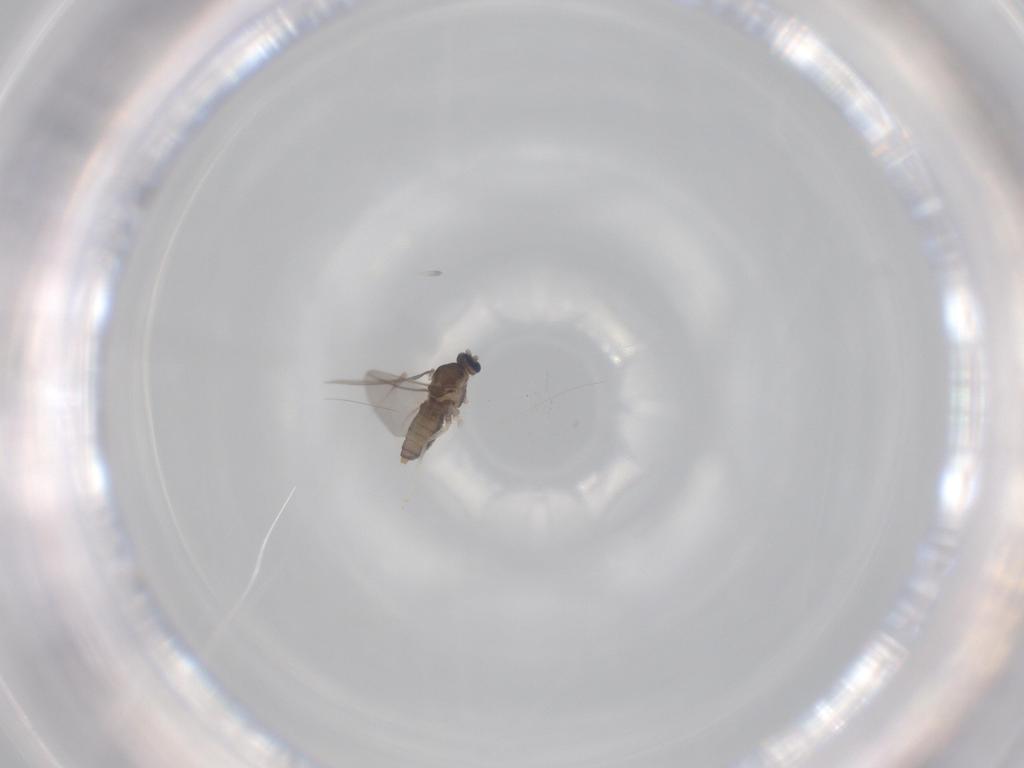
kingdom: Animalia
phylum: Arthropoda
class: Insecta
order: Diptera
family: Cecidomyiidae
